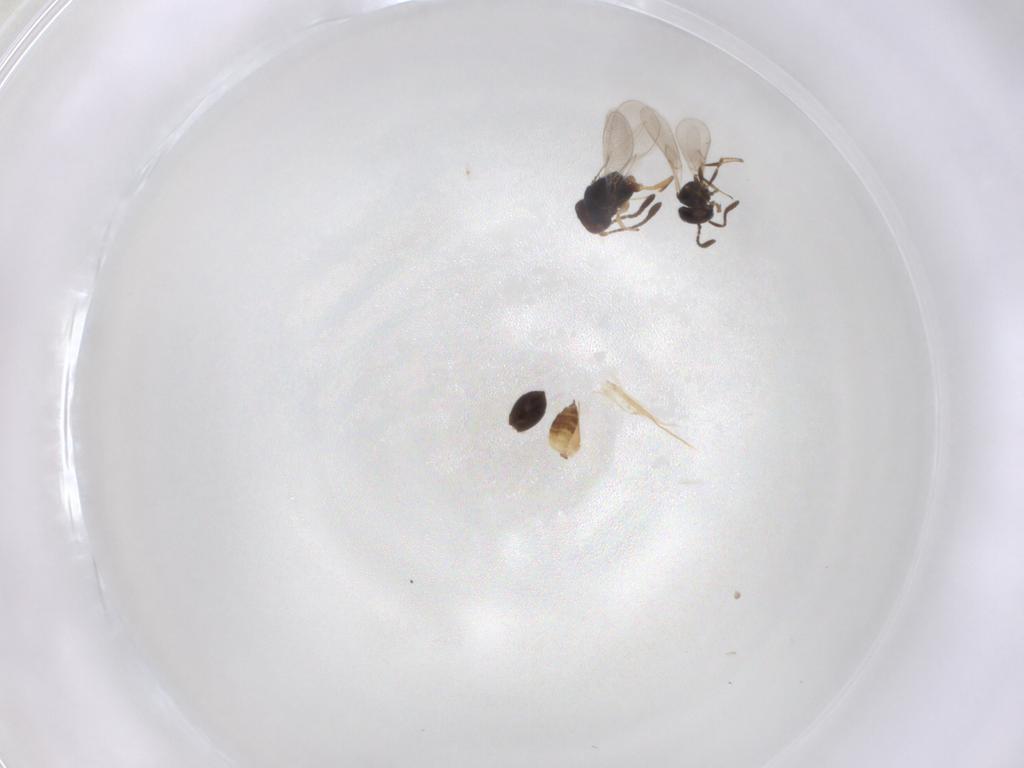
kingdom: Animalia
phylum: Arthropoda
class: Insecta
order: Hymenoptera
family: Scelionidae
